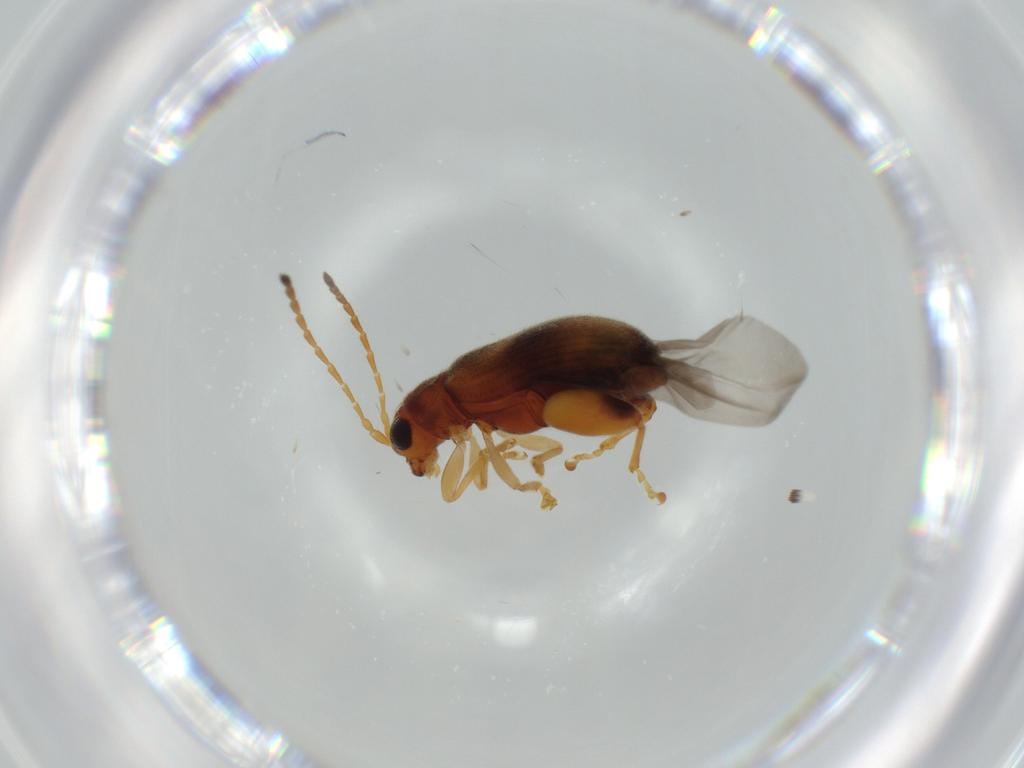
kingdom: Animalia
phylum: Arthropoda
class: Insecta
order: Coleoptera
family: Chrysomelidae
